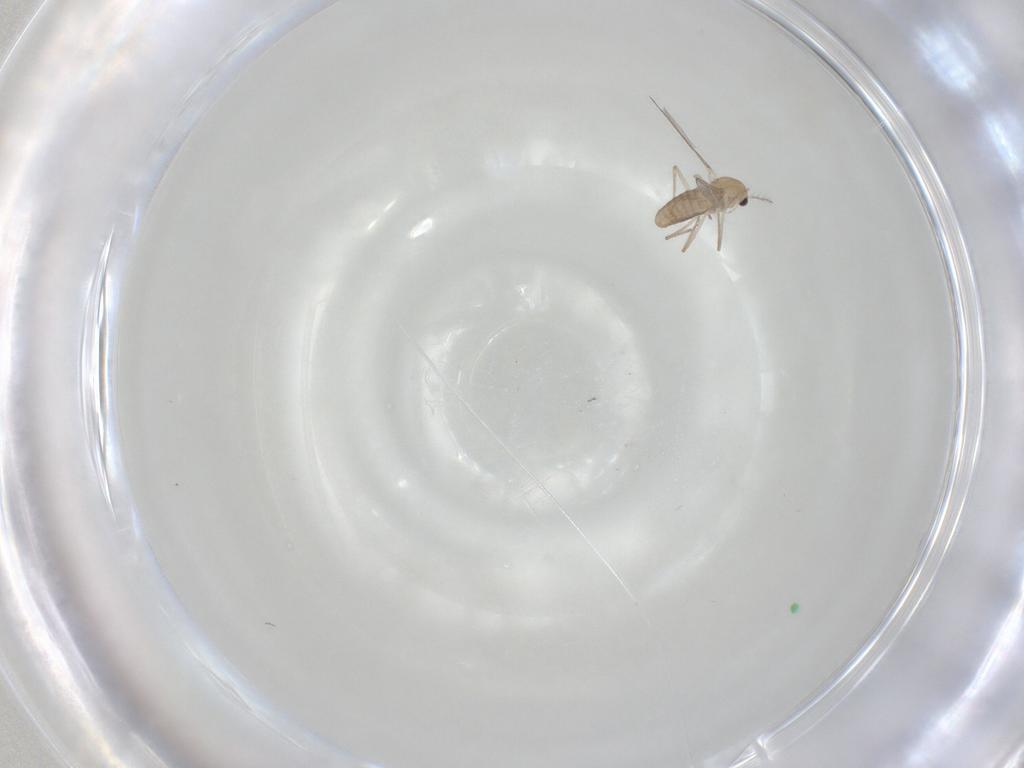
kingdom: Animalia
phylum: Arthropoda
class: Insecta
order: Diptera
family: Chironomidae
